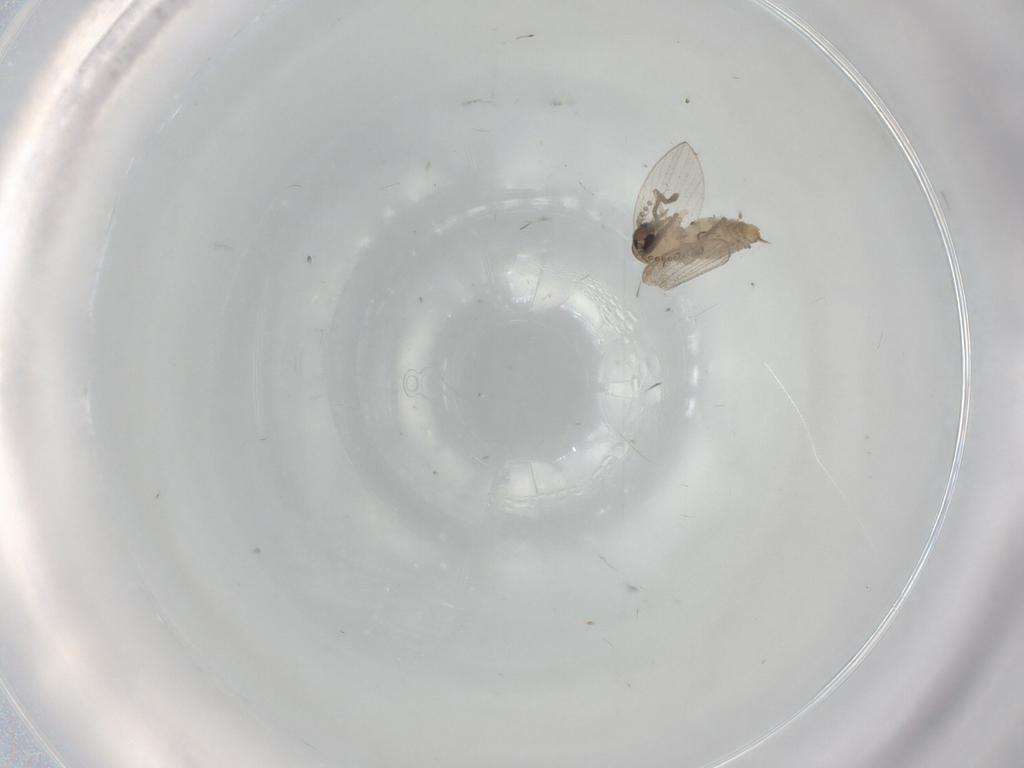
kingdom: Animalia
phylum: Arthropoda
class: Insecta
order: Diptera
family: Psychodidae
